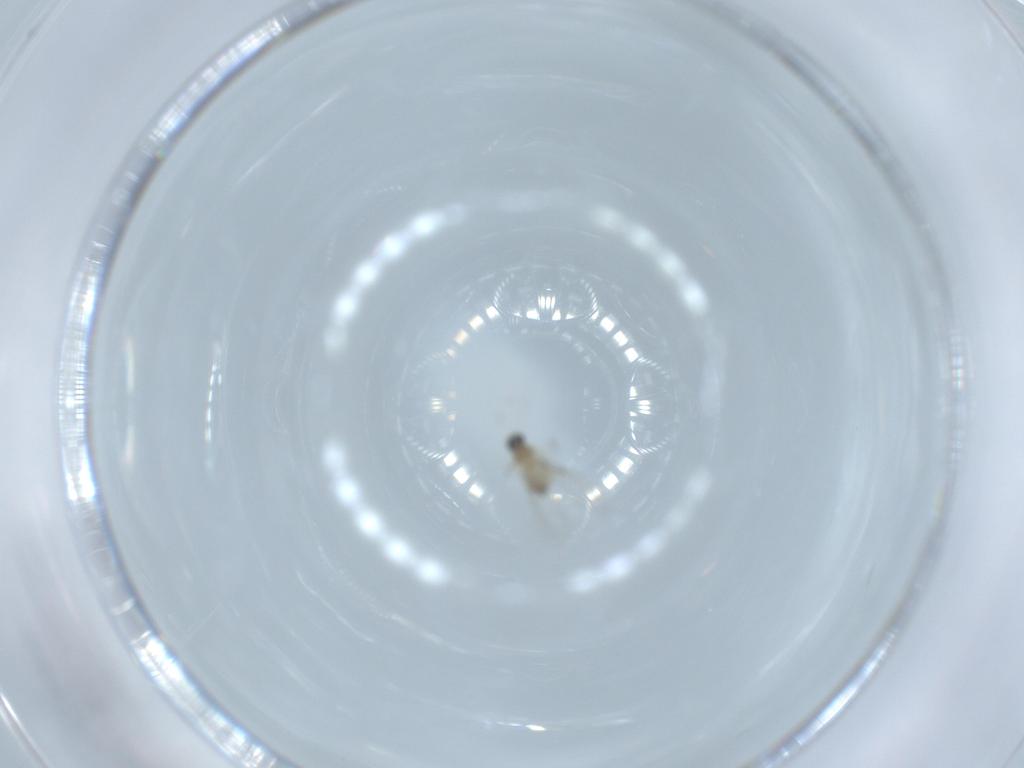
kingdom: Animalia
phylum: Arthropoda
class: Insecta
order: Diptera
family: Cecidomyiidae
